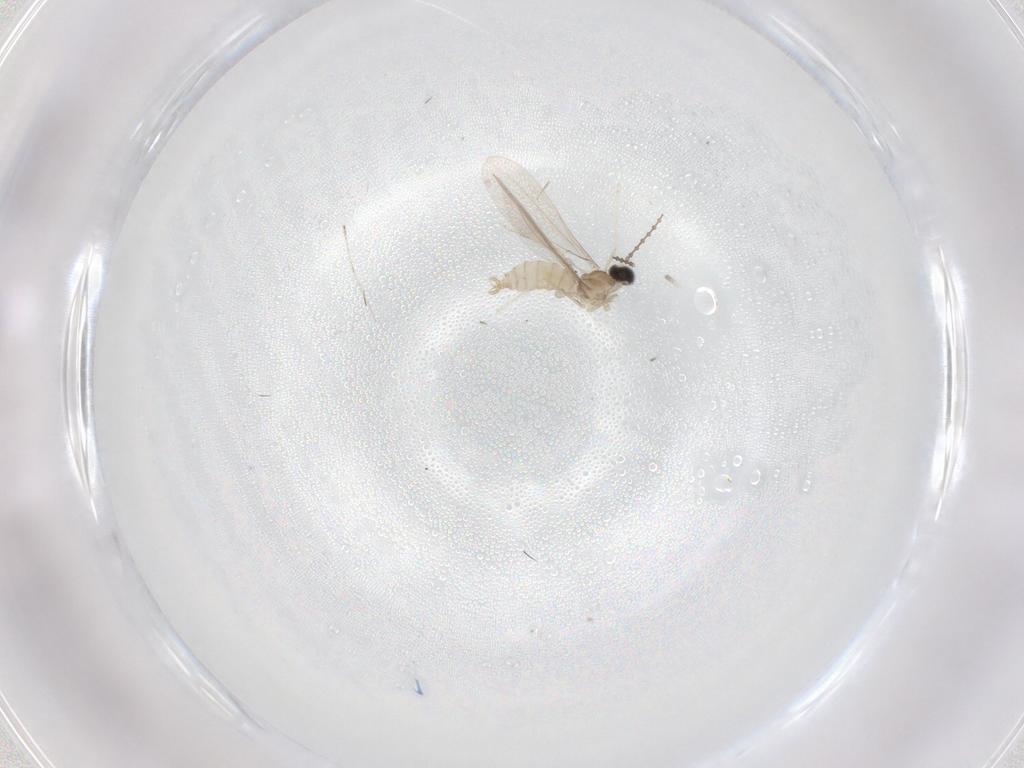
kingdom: Animalia
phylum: Arthropoda
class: Insecta
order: Diptera
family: Cecidomyiidae
